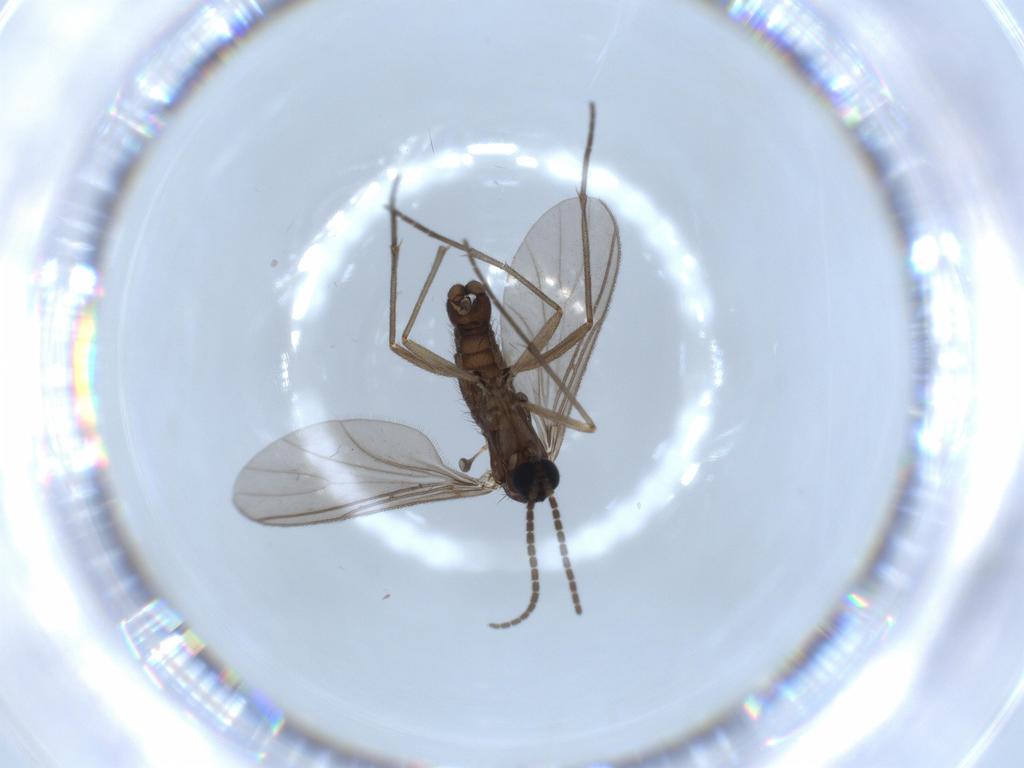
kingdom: Animalia
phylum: Arthropoda
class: Insecta
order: Diptera
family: Sciaridae
